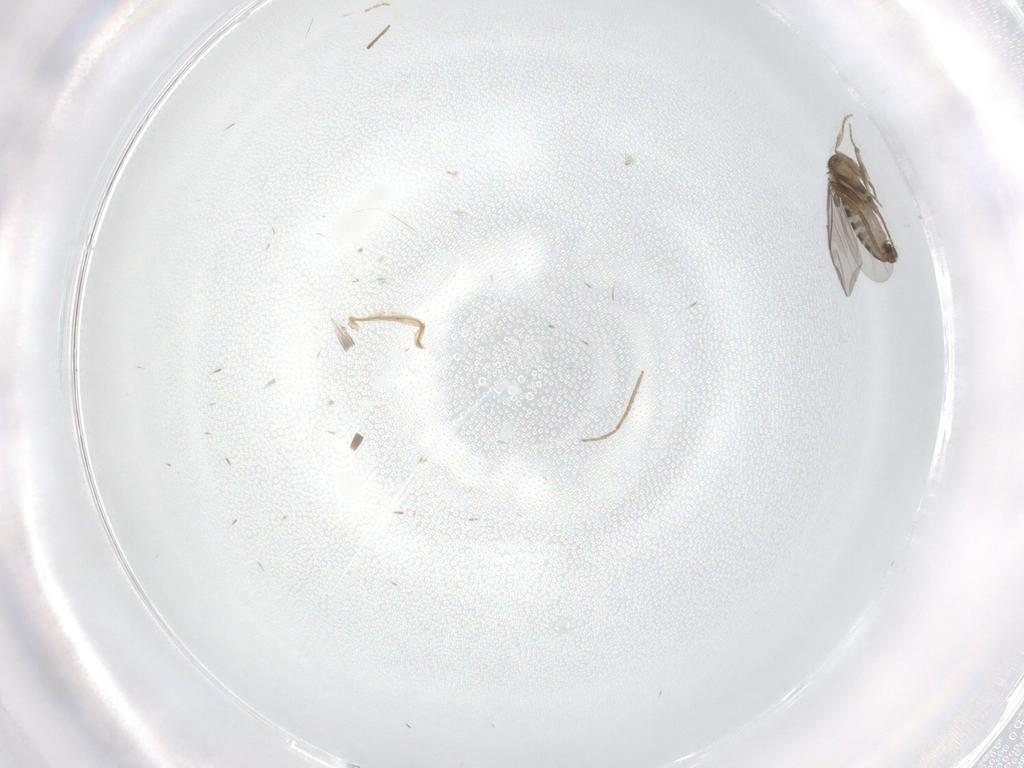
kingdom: Animalia
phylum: Arthropoda
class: Insecta
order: Diptera
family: Chironomidae
